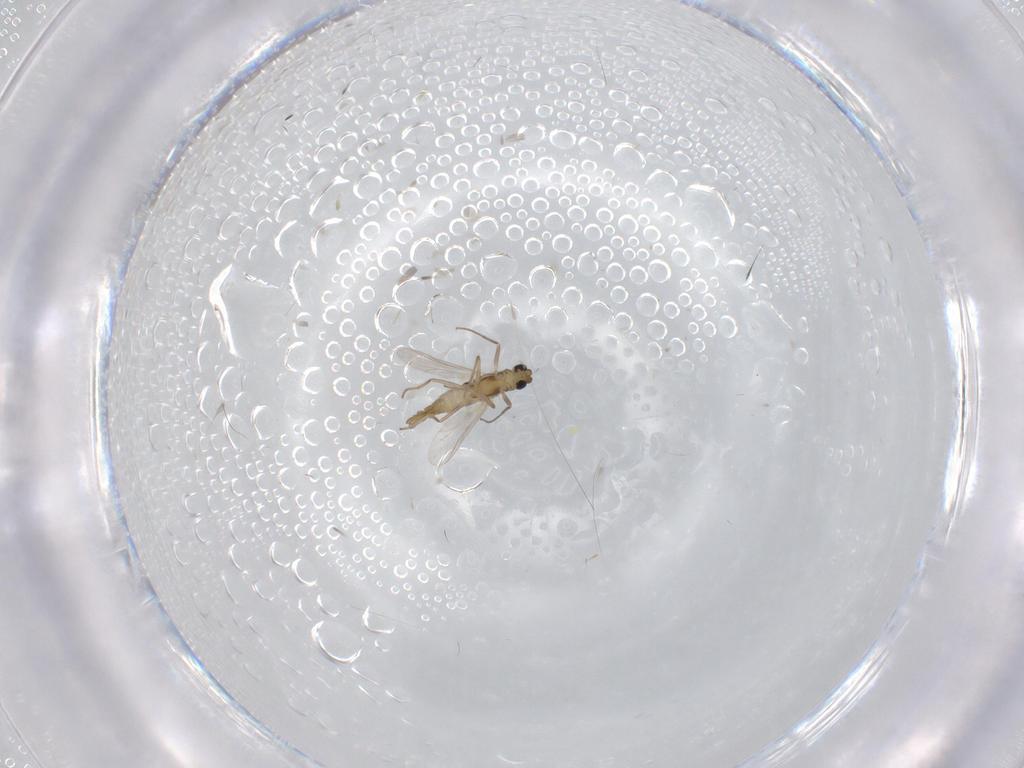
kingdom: Animalia
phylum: Arthropoda
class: Insecta
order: Diptera
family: Chironomidae
